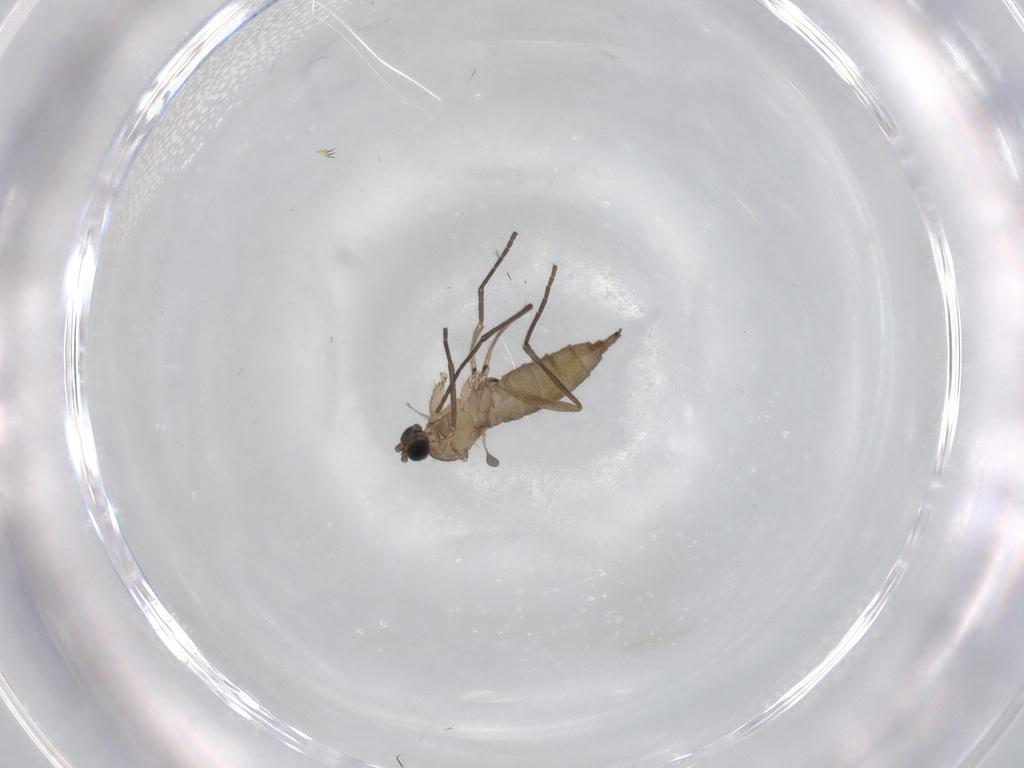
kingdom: Animalia
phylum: Arthropoda
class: Insecta
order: Diptera
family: Sciaridae
